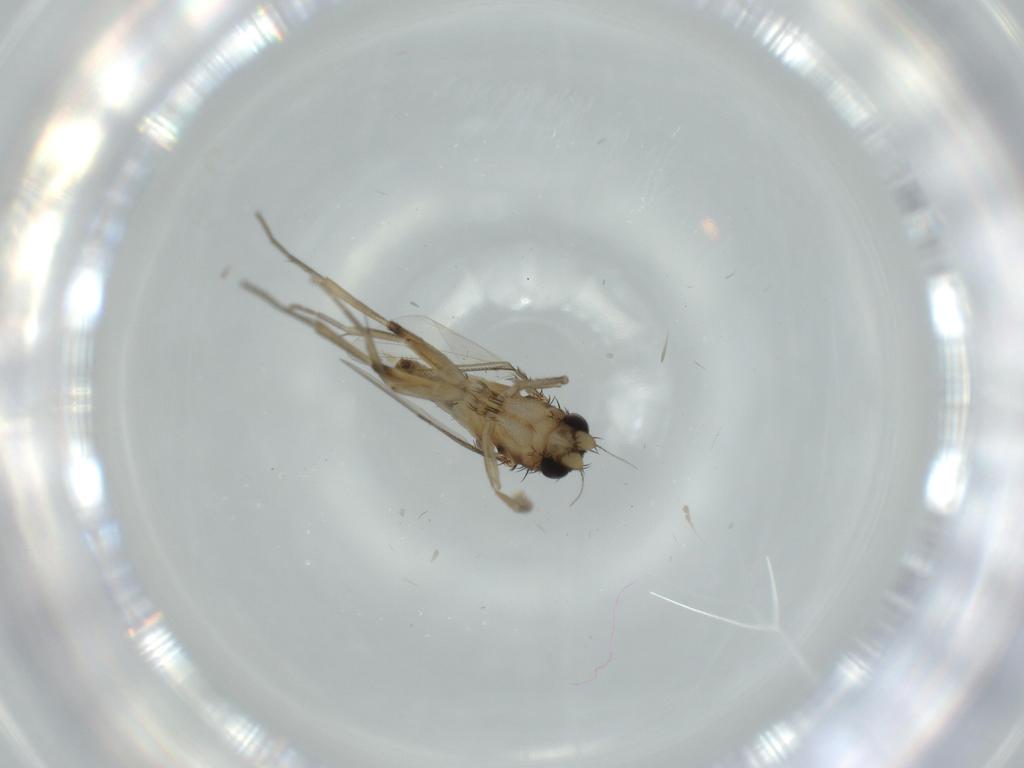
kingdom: Animalia
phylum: Arthropoda
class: Insecta
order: Diptera
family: Phoridae
